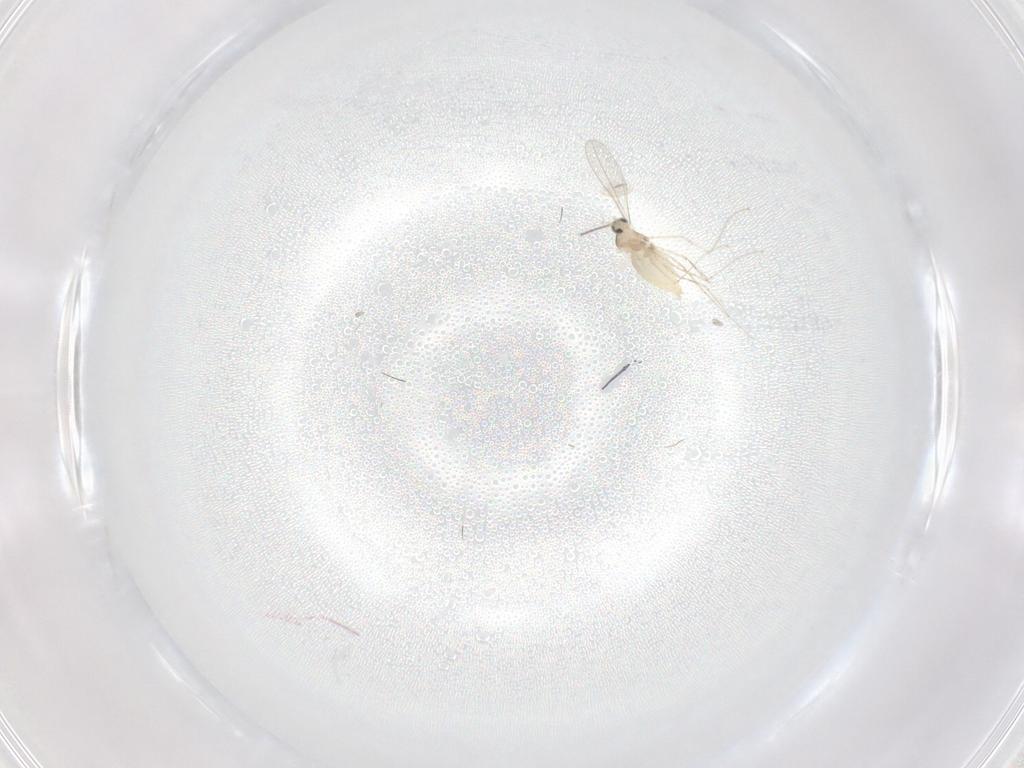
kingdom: Animalia
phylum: Arthropoda
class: Insecta
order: Diptera
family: Cecidomyiidae
